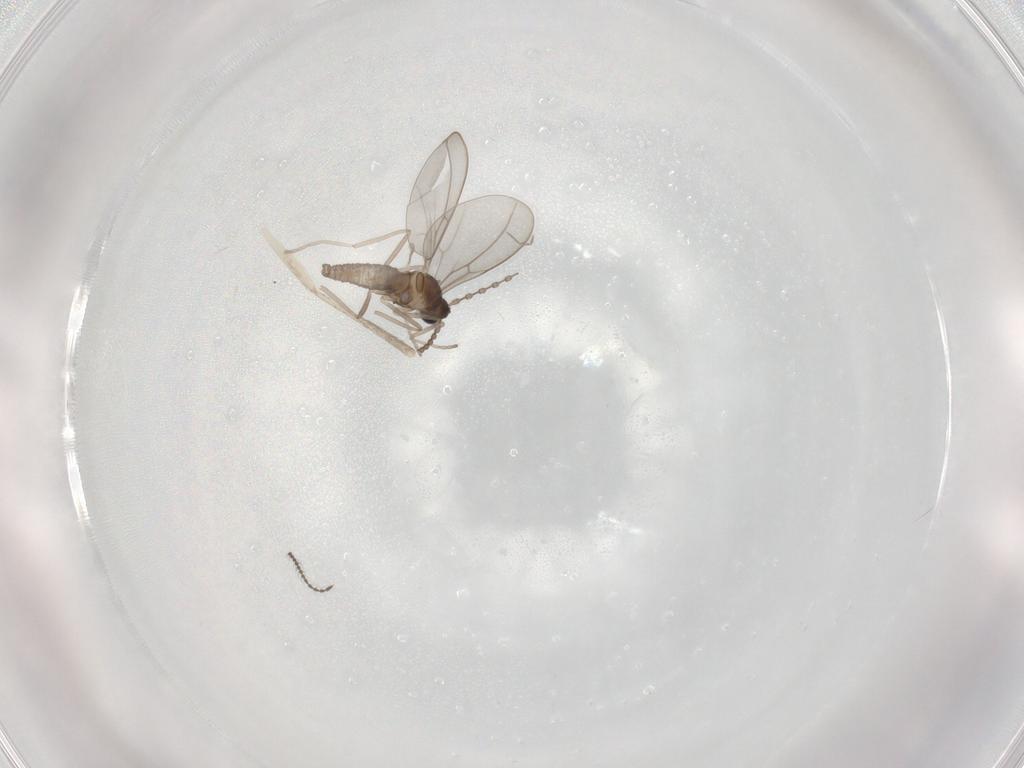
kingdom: Animalia
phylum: Arthropoda
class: Insecta
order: Diptera
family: Cecidomyiidae
